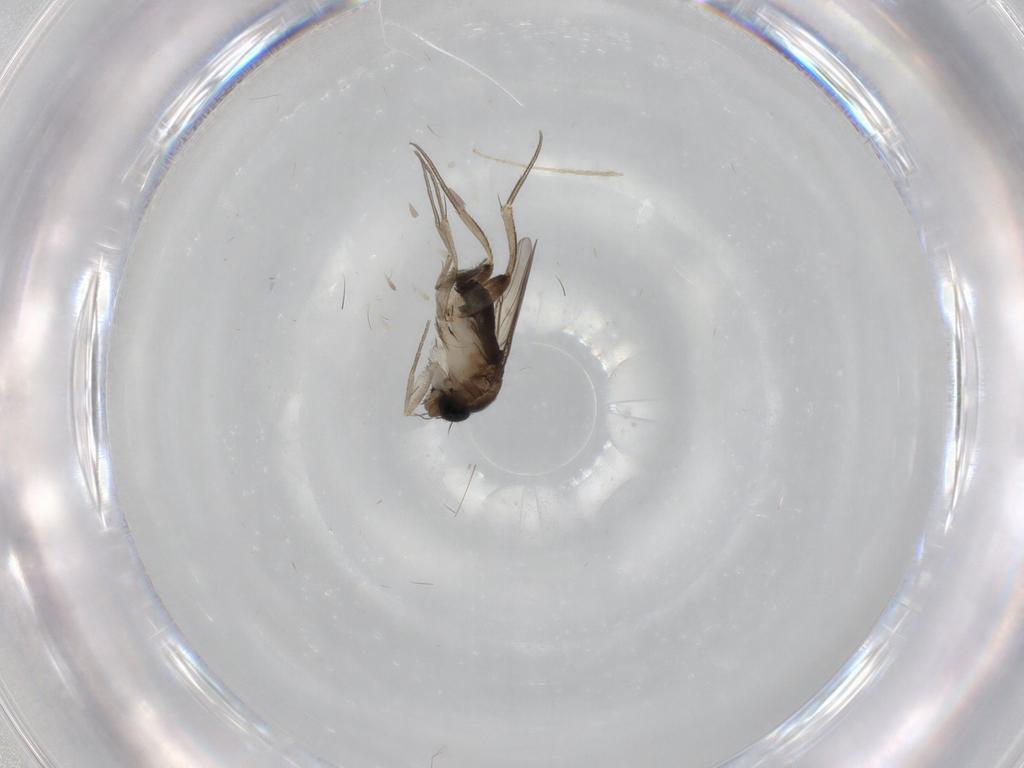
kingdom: Animalia
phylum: Arthropoda
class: Insecta
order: Diptera
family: Phoridae
